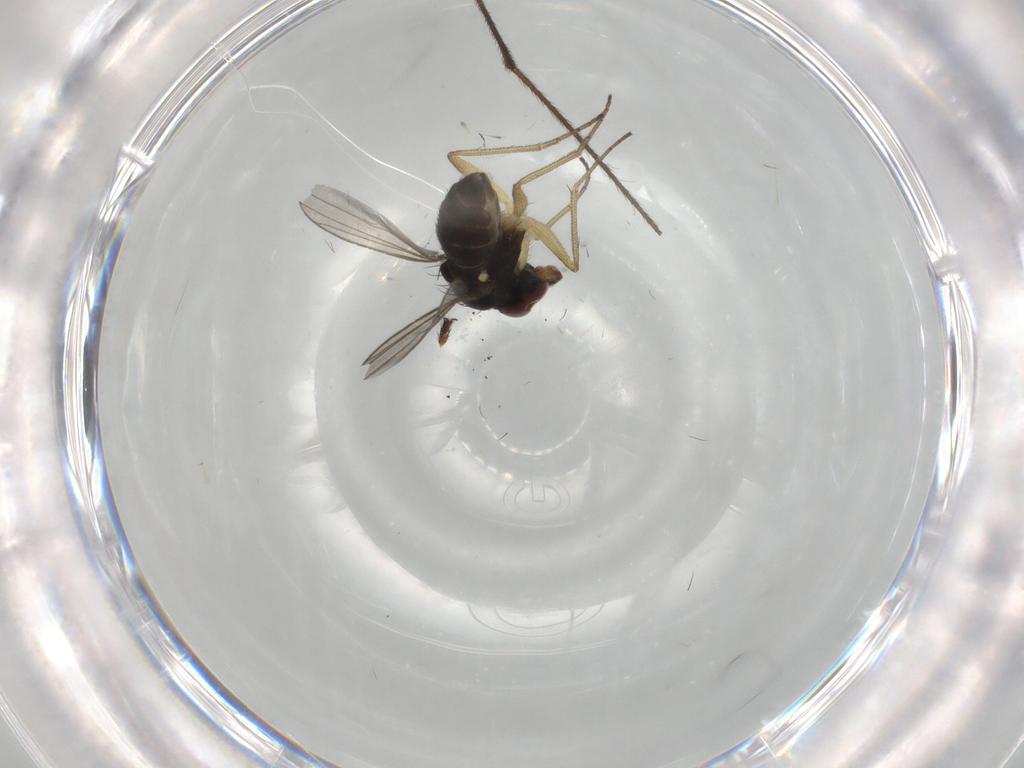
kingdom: Animalia
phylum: Arthropoda
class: Insecta
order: Diptera
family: Dolichopodidae
